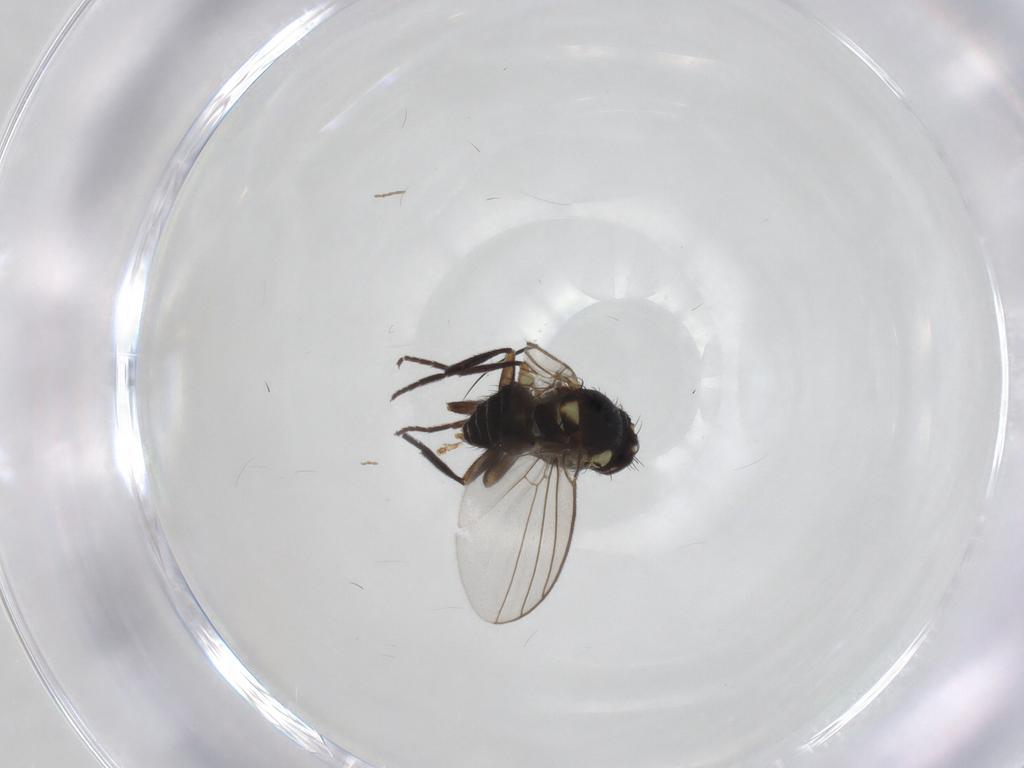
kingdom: Animalia
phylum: Arthropoda
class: Insecta
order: Diptera
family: Agromyzidae
